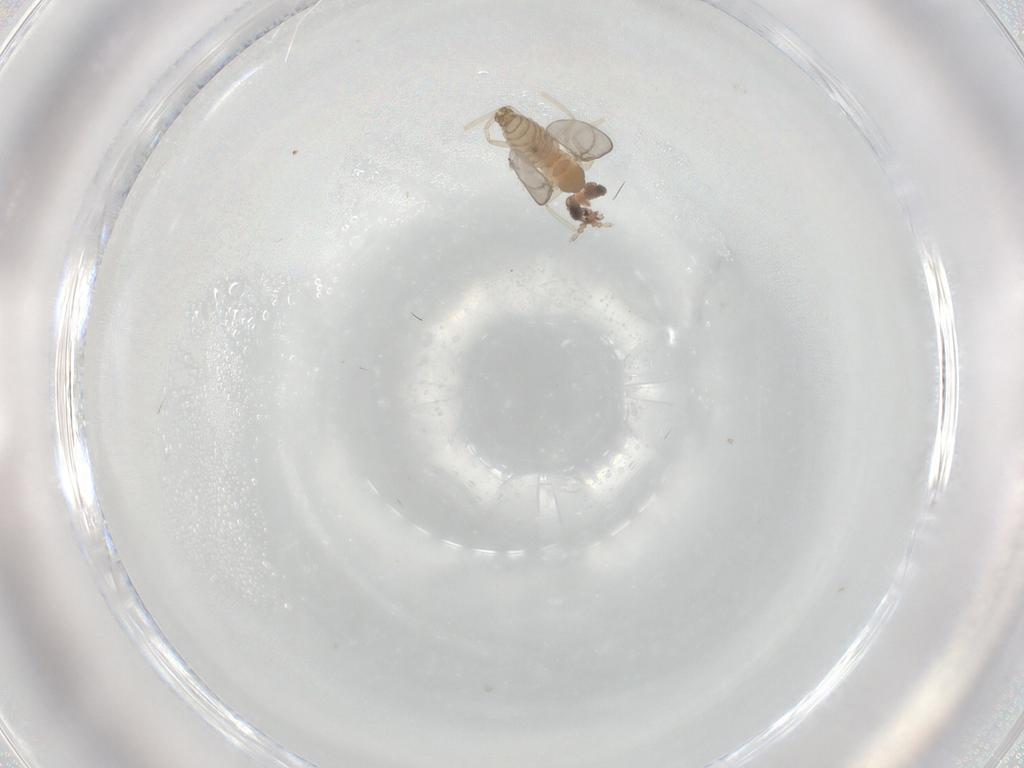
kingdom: Animalia
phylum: Arthropoda
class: Insecta
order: Diptera
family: Cecidomyiidae
